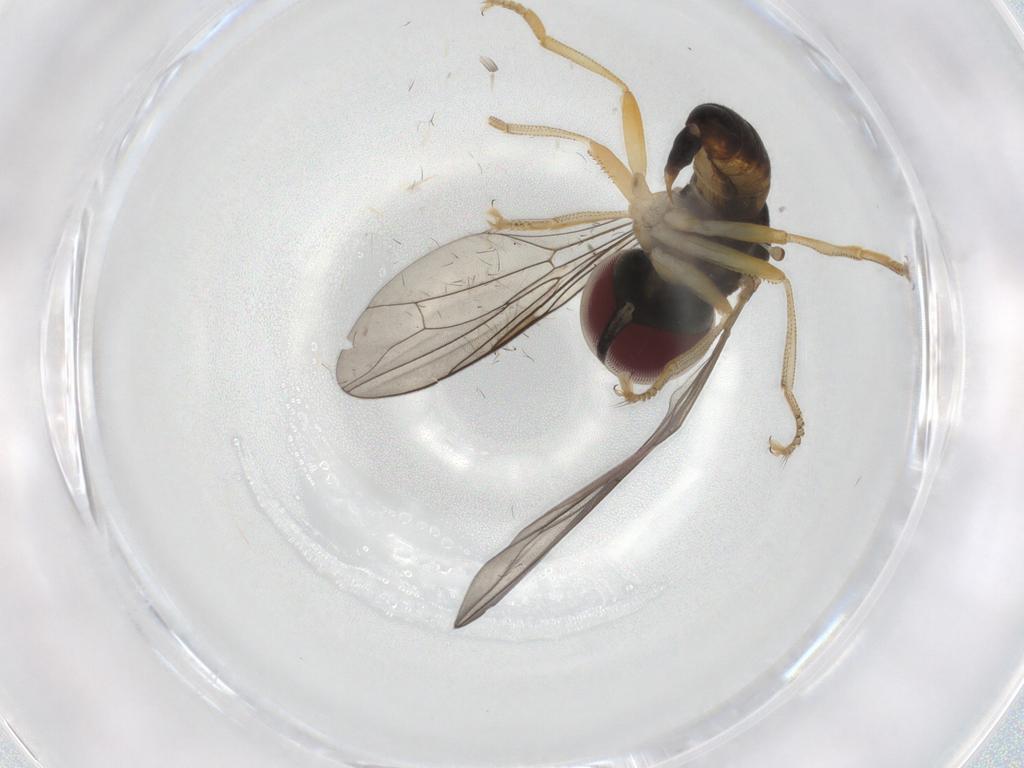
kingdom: Animalia
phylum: Arthropoda
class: Insecta
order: Diptera
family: Pipunculidae
